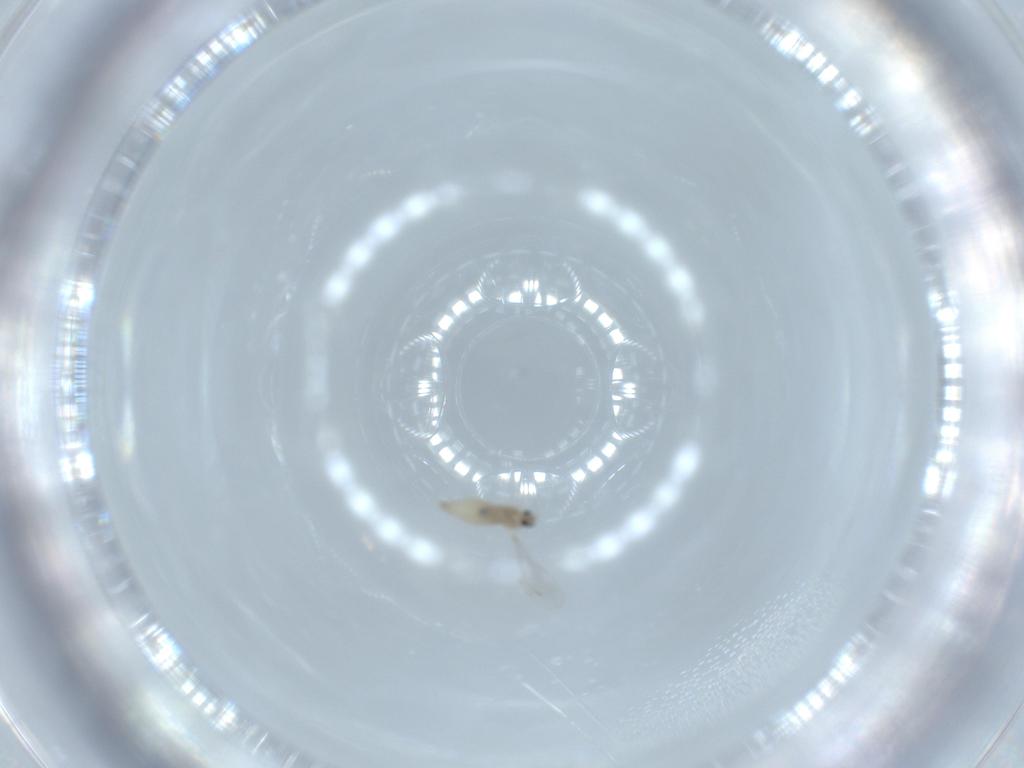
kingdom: Animalia
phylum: Arthropoda
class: Insecta
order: Diptera
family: Cecidomyiidae
